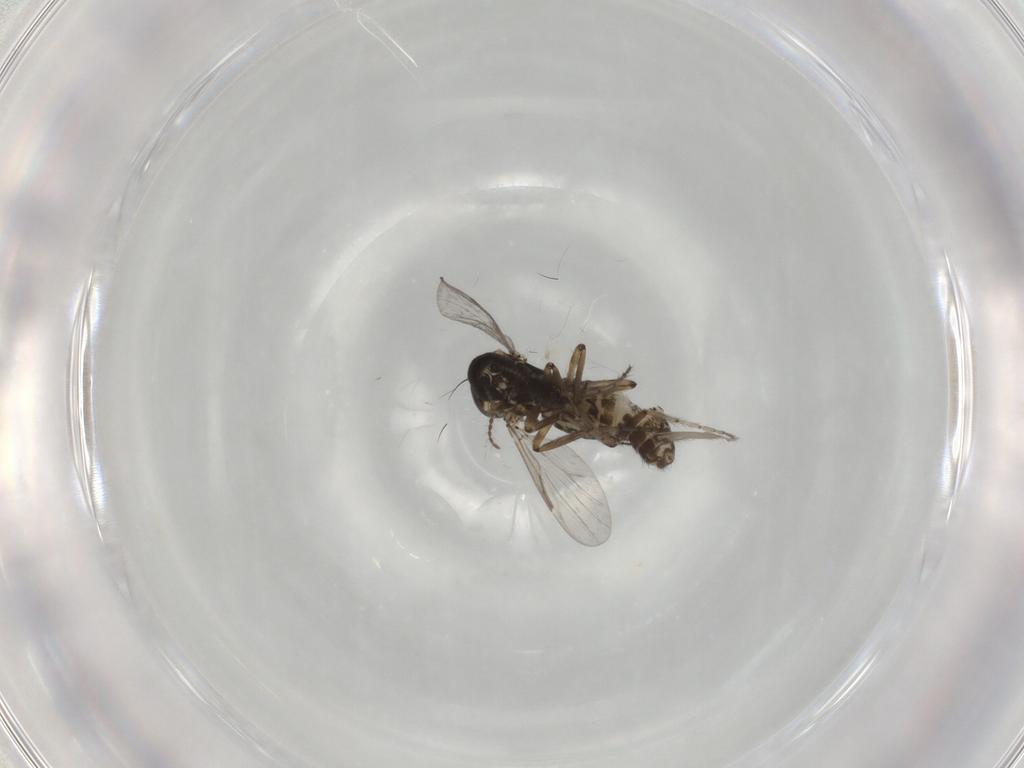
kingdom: Animalia
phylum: Arthropoda
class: Insecta
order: Diptera
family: Ceratopogonidae
